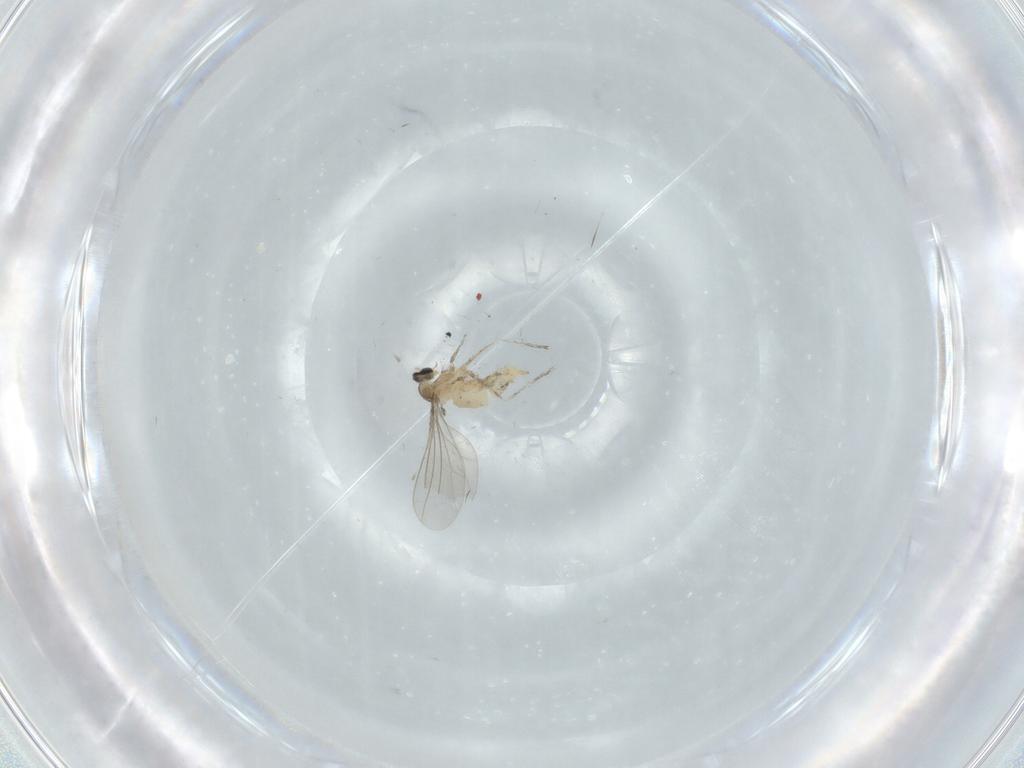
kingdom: Animalia
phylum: Arthropoda
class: Insecta
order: Diptera
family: Cecidomyiidae
